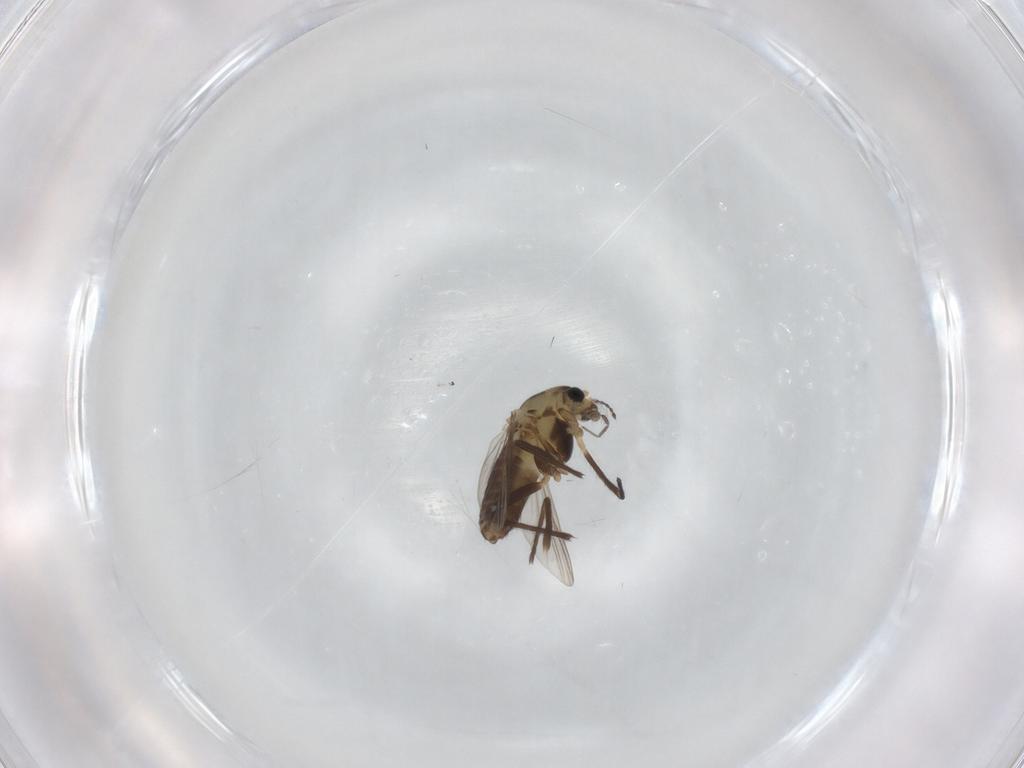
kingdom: Animalia
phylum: Arthropoda
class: Insecta
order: Diptera
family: Chironomidae
